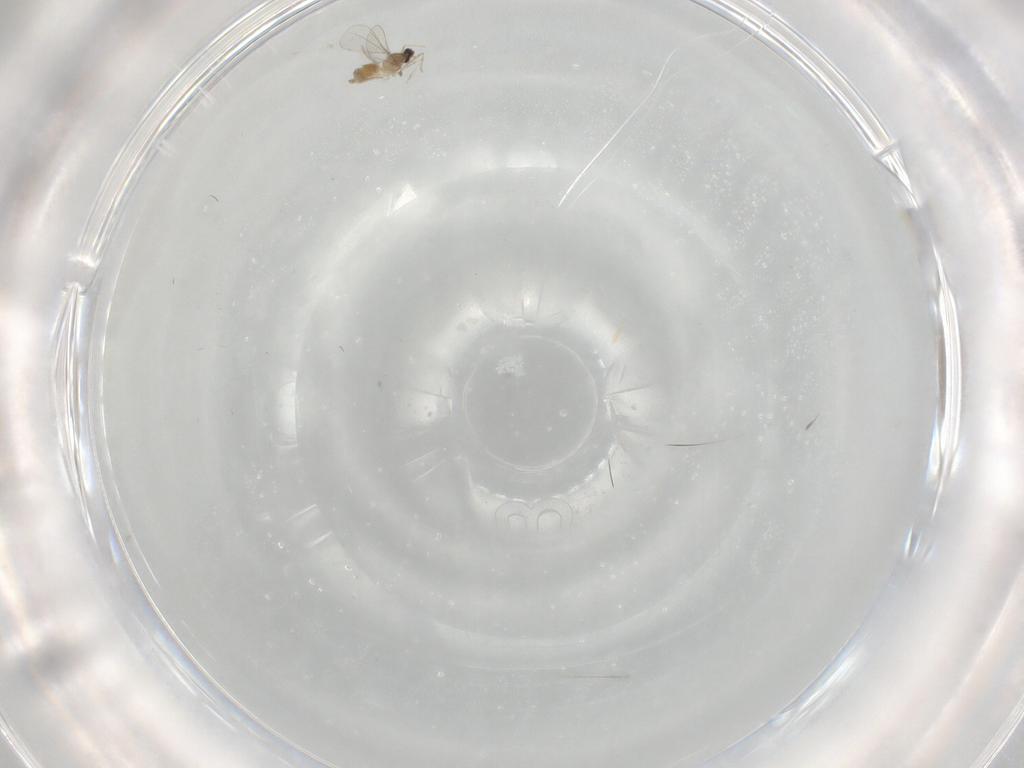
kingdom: Animalia
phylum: Arthropoda
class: Insecta
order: Diptera
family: Cecidomyiidae
